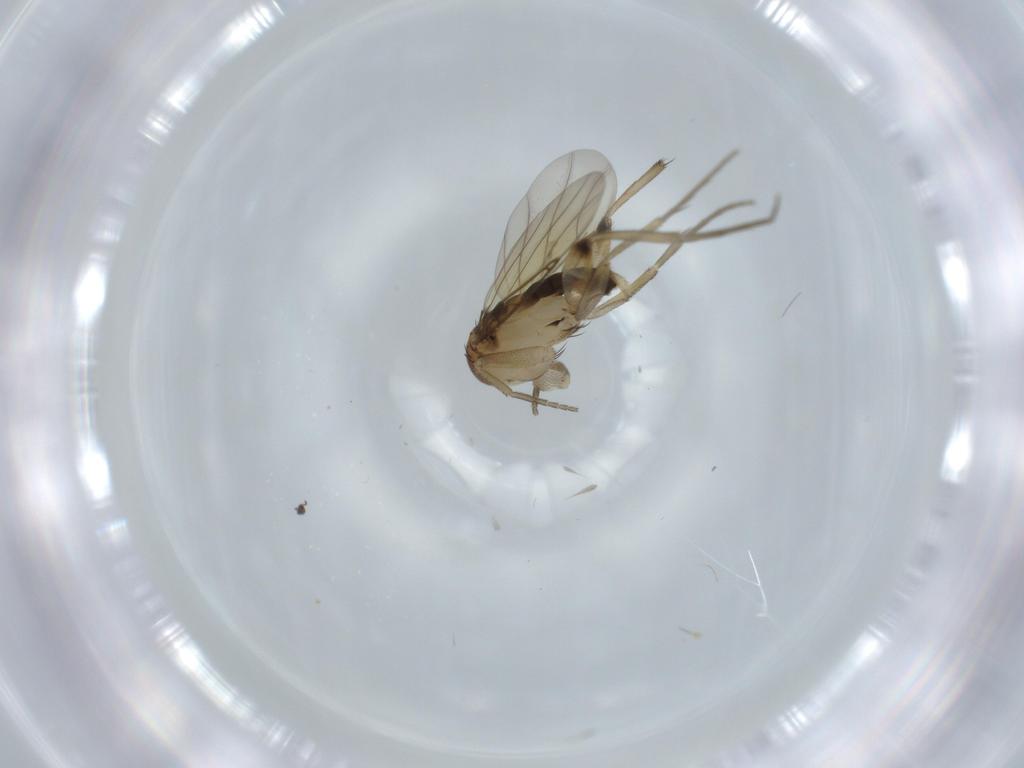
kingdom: Animalia
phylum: Arthropoda
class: Insecta
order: Diptera
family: Phoridae
